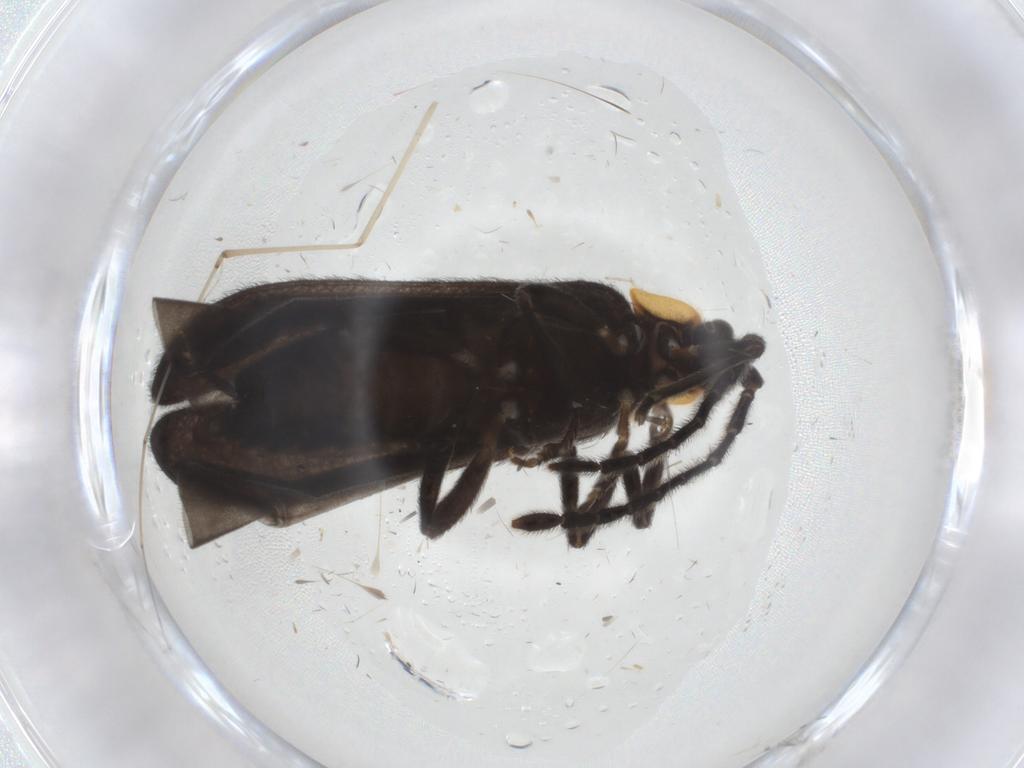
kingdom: Animalia
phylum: Arthropoda
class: Insecta
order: Coleoptera
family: Lycidae
